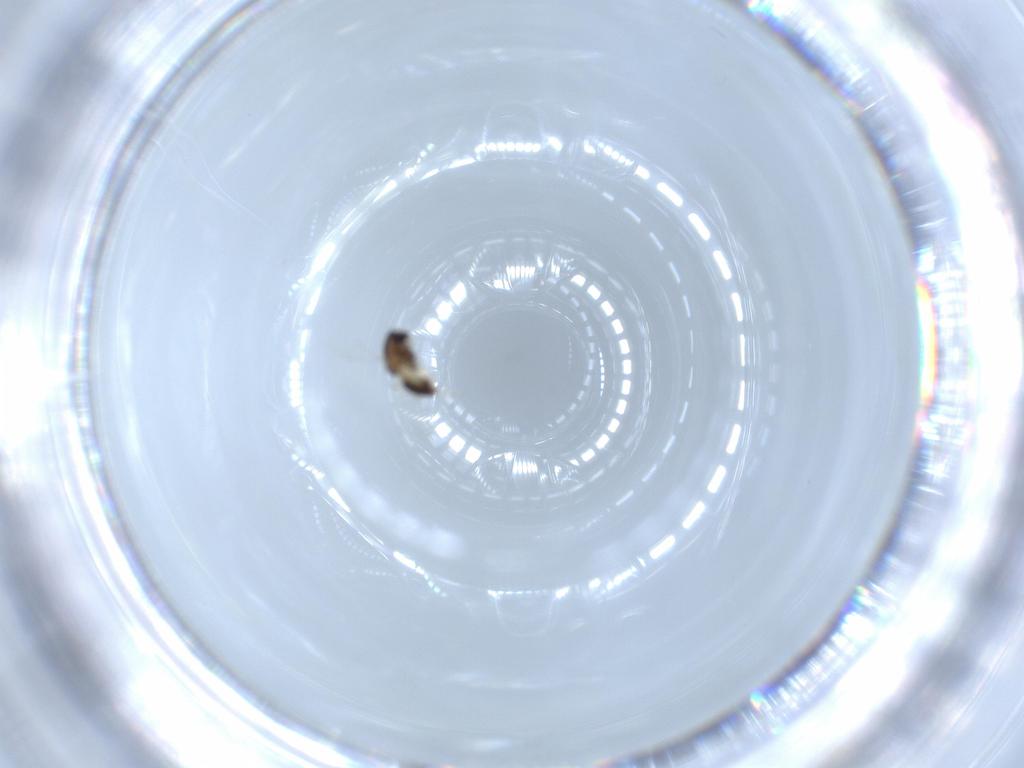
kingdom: Animalia
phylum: Arthropoda
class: Insecta
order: Diptera
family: Chironomidae
